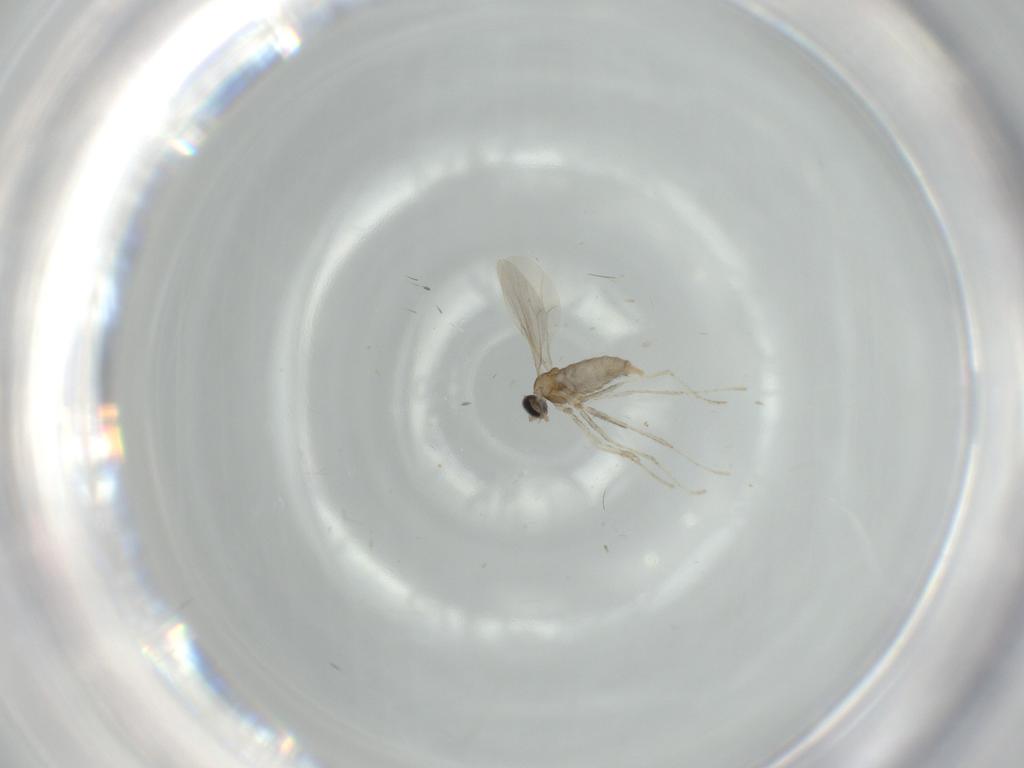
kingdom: Animalia
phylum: Arthropoda
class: Insecta
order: Diptera
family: Cecidomyiidae
